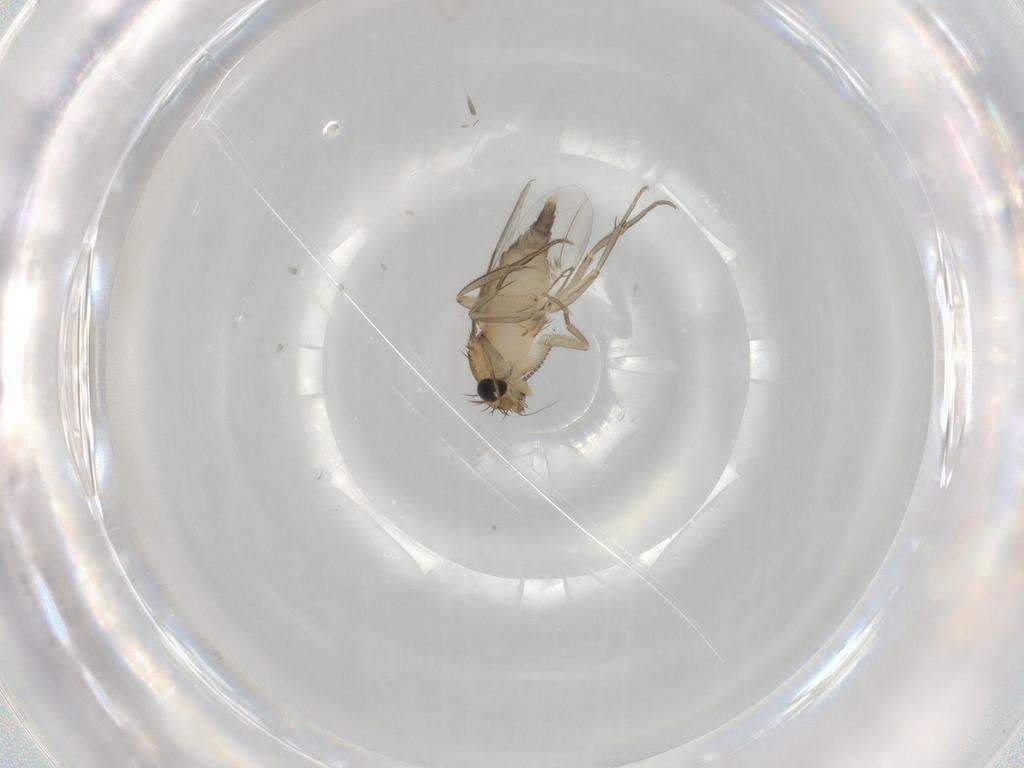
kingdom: Animalia
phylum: Arthropoda
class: Insecta
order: Diptera
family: Phoridae
